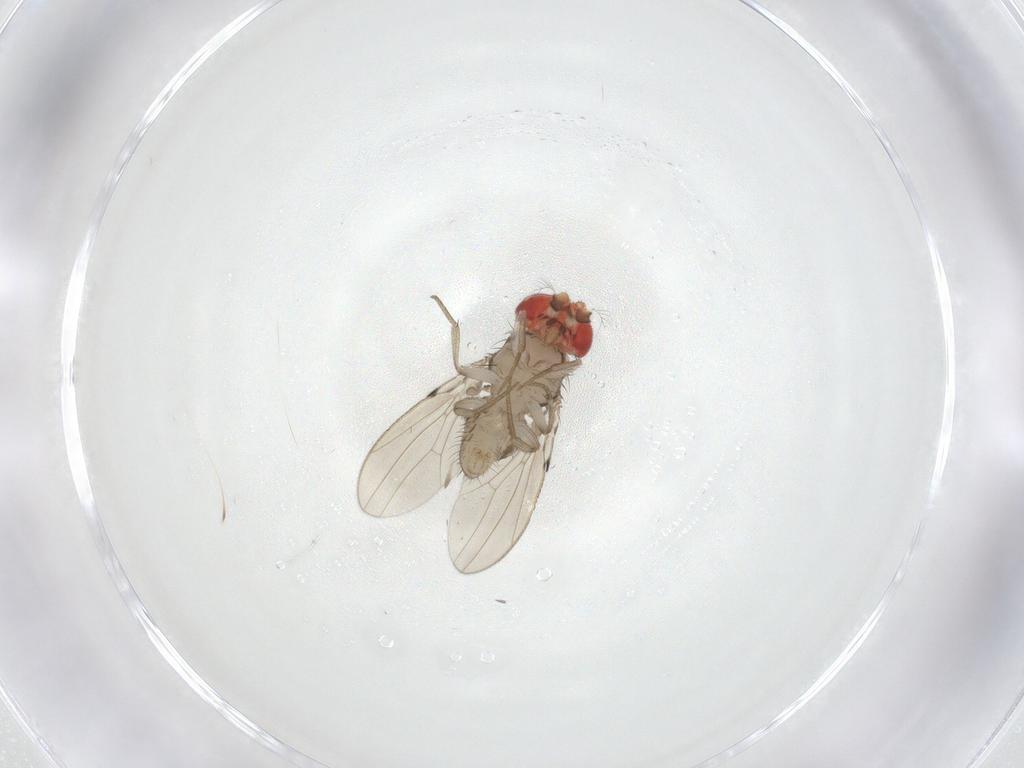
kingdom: Animalia
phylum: Arthropoda
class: Insecta
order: Diptera
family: Drosophilidae
